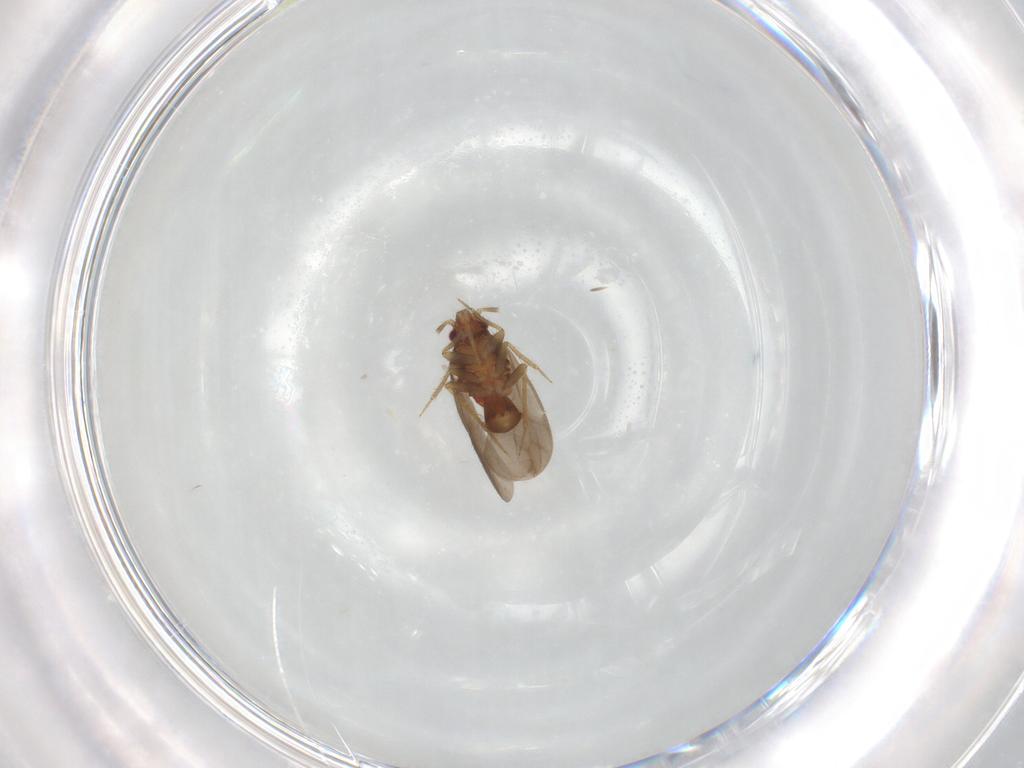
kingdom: Animalia
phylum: Arthropoda
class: Insecta
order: Hemiptera
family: Ceratocombidae
